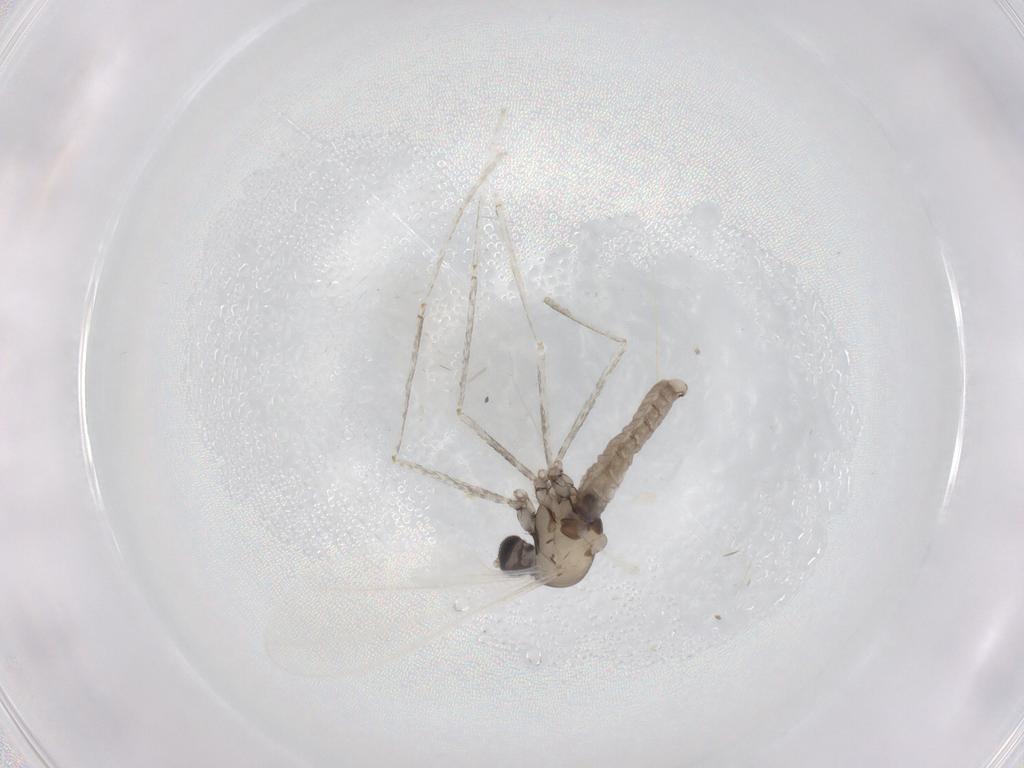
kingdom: Animalia
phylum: Arthropoda
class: Insecta
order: Diptera
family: Cecidomyiidae
